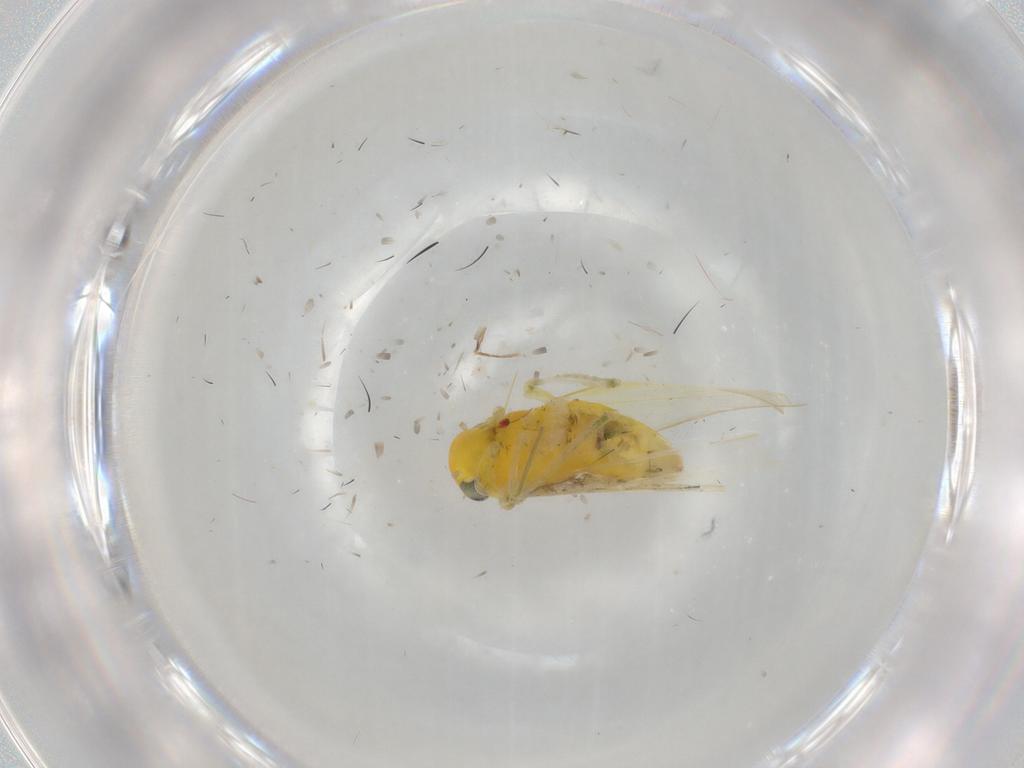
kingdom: Animalia
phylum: Arthropoda
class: Insecta
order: Hemiptera
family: Cicadellidae
